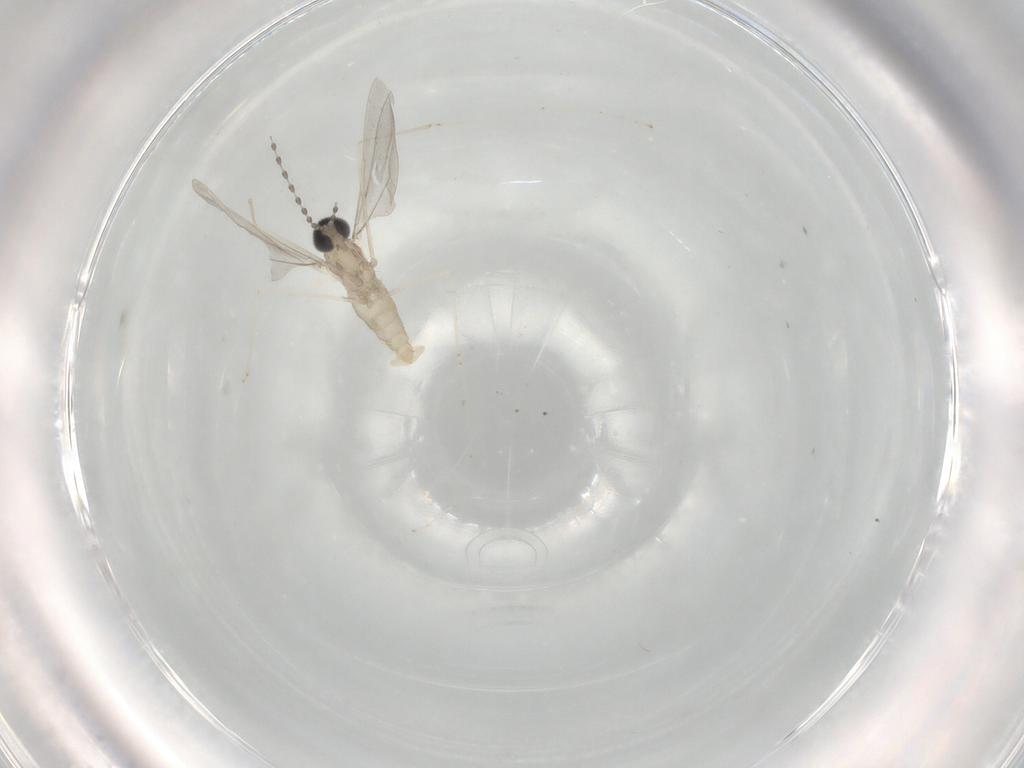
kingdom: Animalia
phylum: Arthropoda
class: Insecta
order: Diptera
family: Cecidomyiidae
